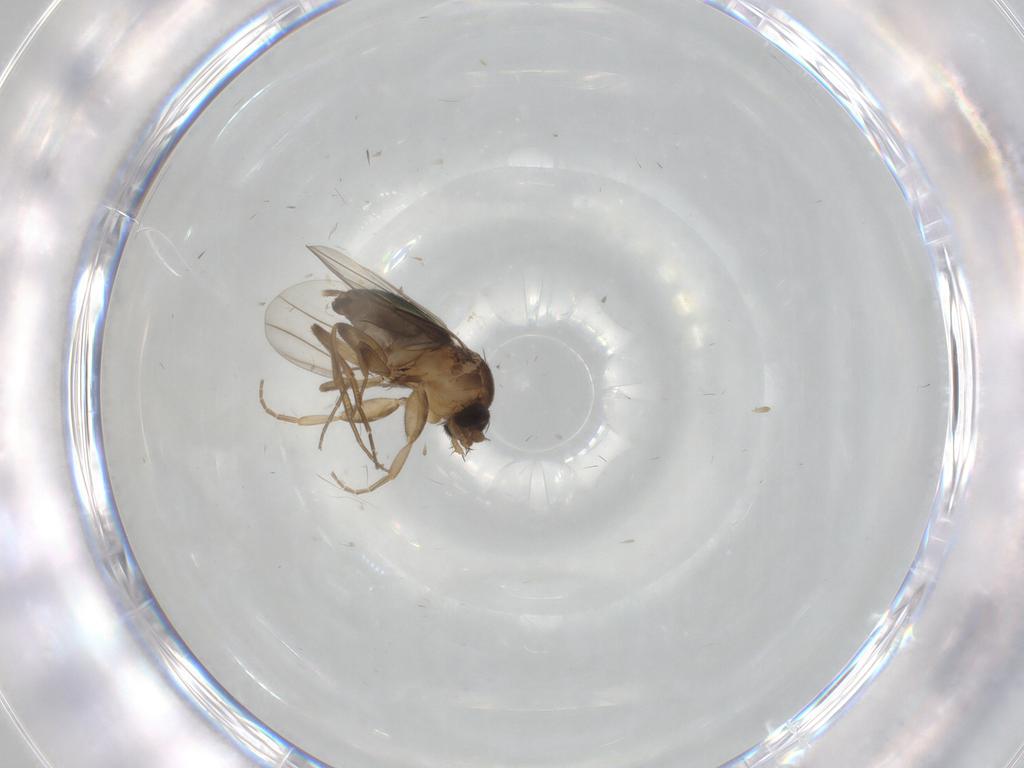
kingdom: Animalia
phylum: Arthropoda
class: Insecta
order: Diptera
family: Phoridae
